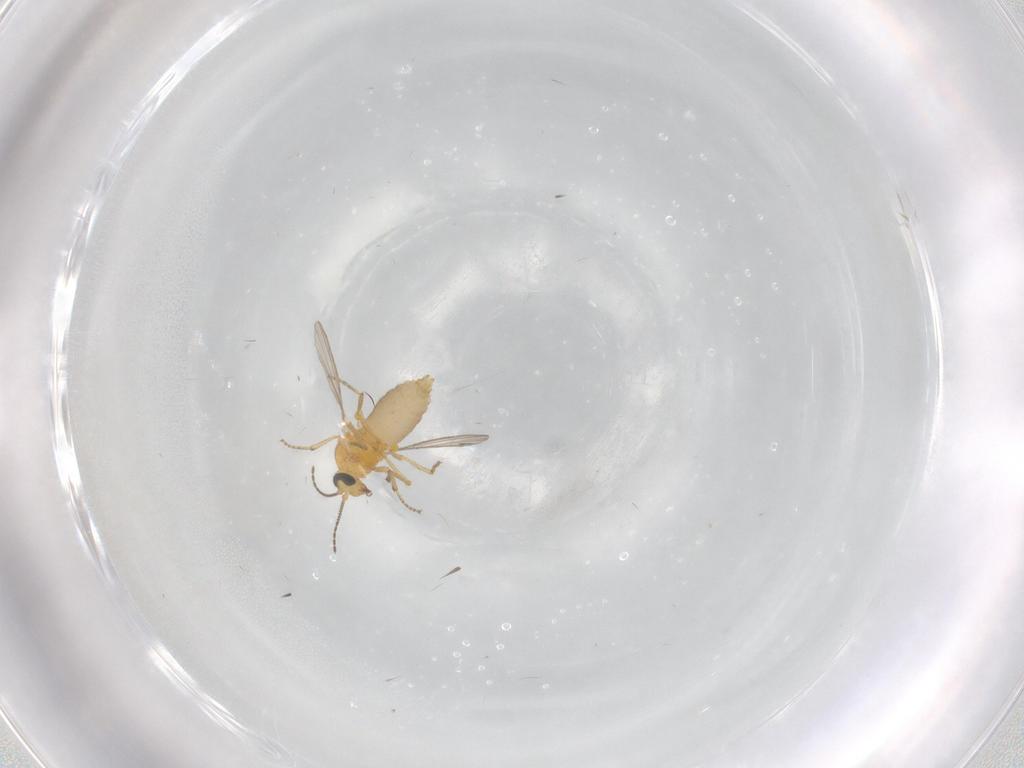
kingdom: Animalia
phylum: Arthropoda
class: Insecta
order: Diptera
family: Ceratopogonidae
